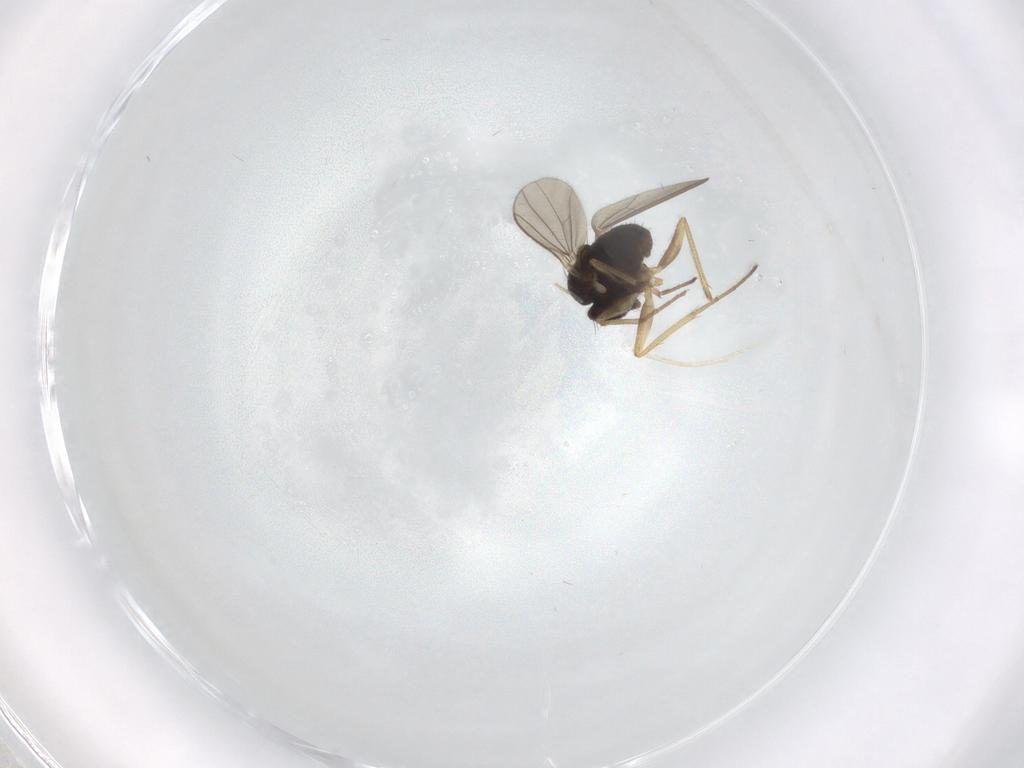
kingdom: Animalia
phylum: Arthropoda
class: Insecta
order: Diptera
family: Dolichopodidae
